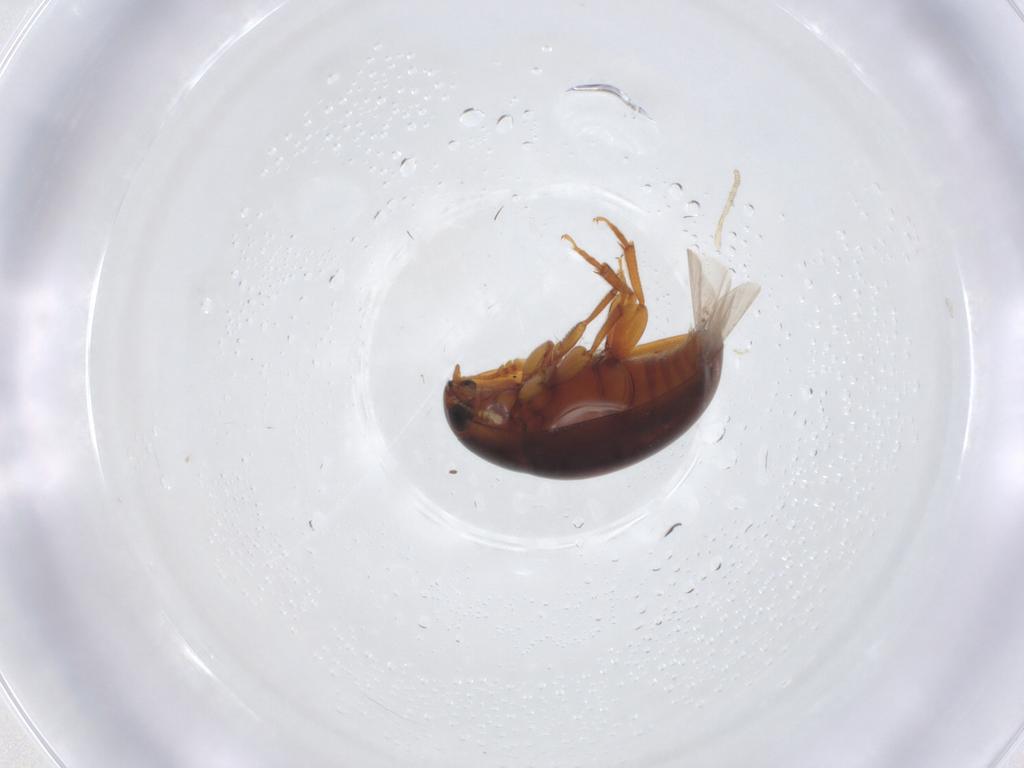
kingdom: Animalia
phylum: Arthropoda
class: Insecta
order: Coleoptera
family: Phalacridae
